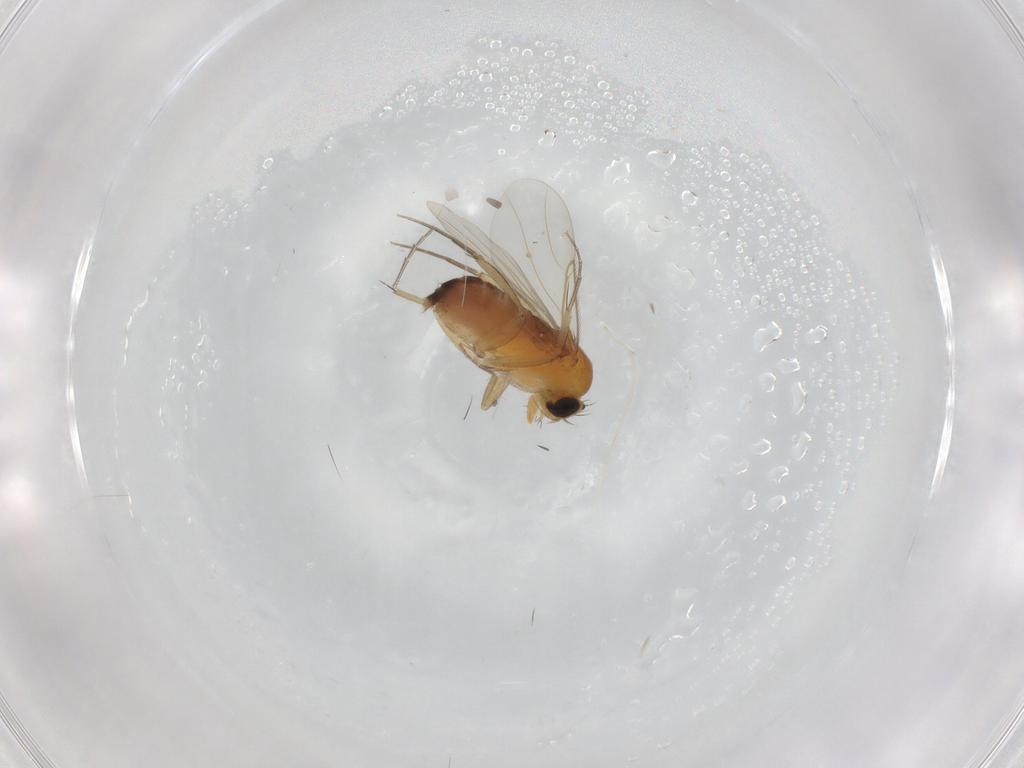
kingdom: Animalia
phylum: Arthropoda
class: Insecta
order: Diptera
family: Phoridae
